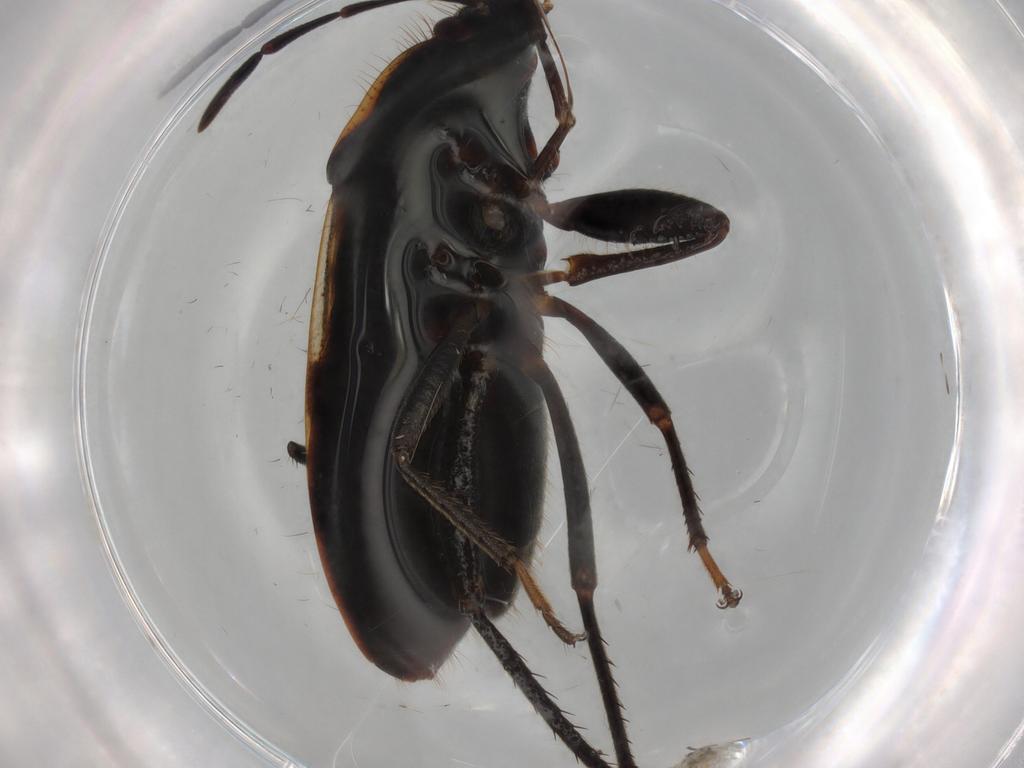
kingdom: Animalia
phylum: Arthropoda
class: Insecta
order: Hemiptera
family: Rhyparochromidae
